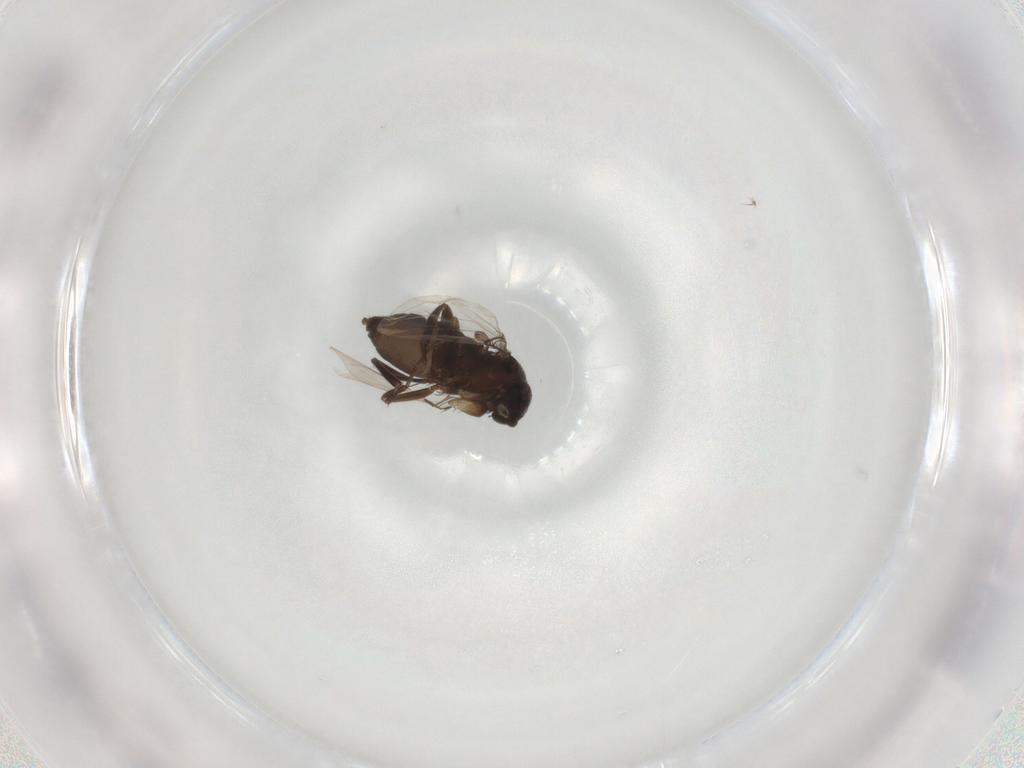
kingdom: Animalia
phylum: Arthropoda
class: Insecta
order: Diptera
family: Phoridae
